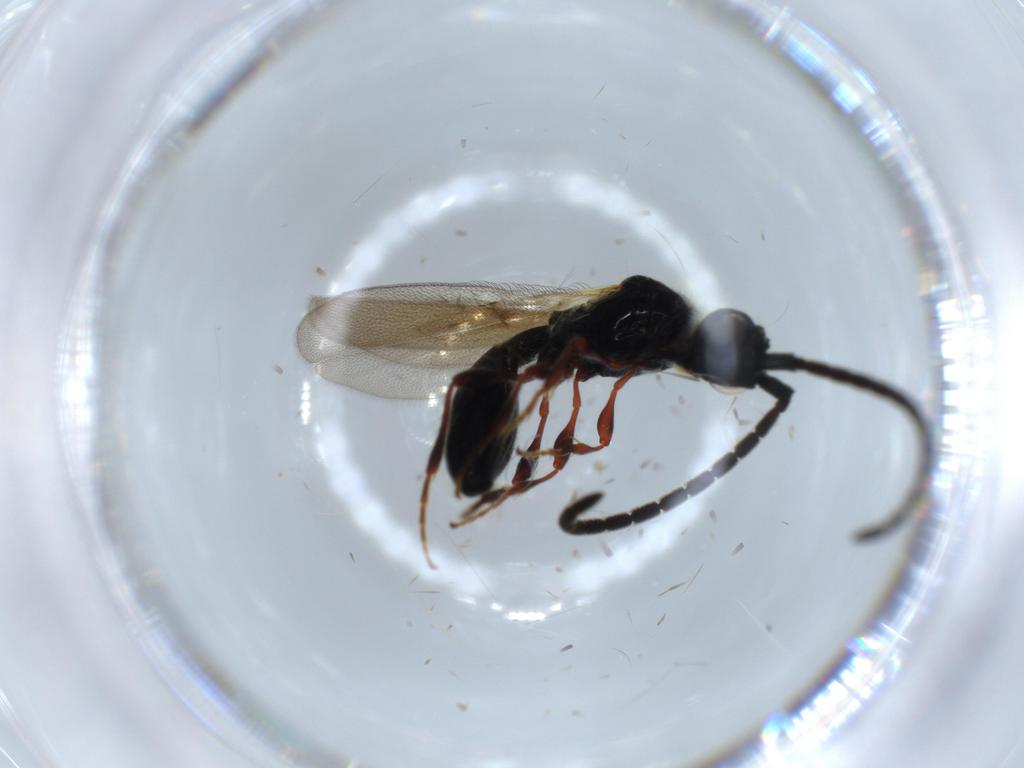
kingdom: Animalia
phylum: Arthropoda
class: Insecta
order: Hymenoptera
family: Diapriidae
